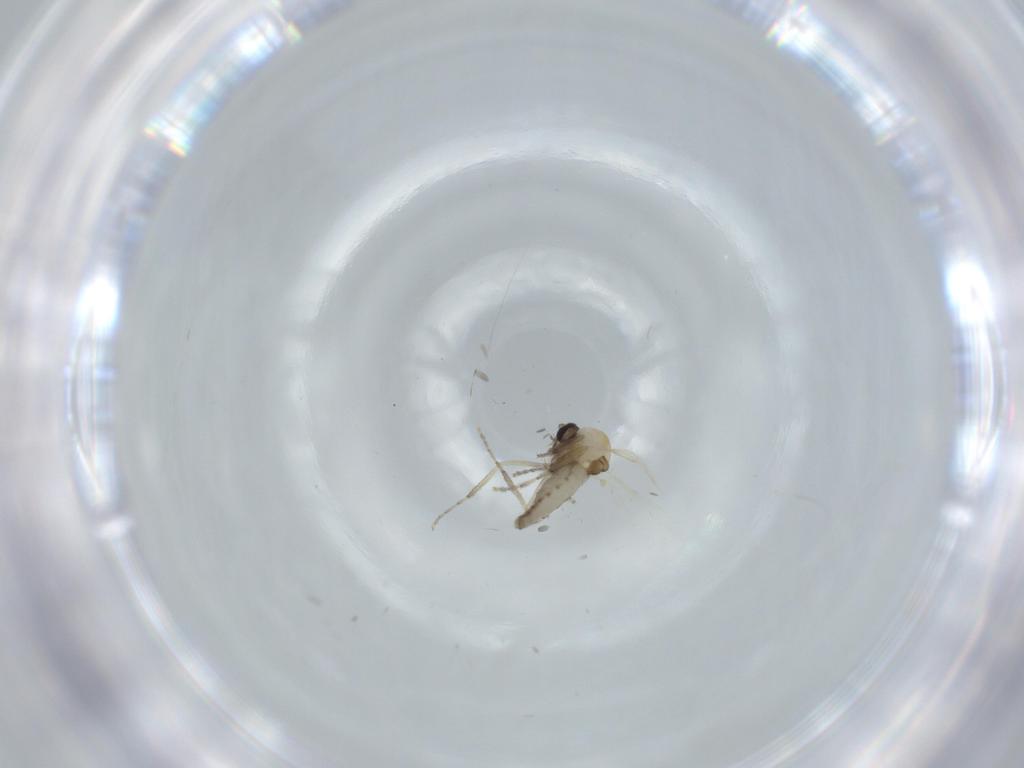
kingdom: Animalia
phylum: Arthropoda
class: Insecta
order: Diptera
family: Ceratopogonidae
